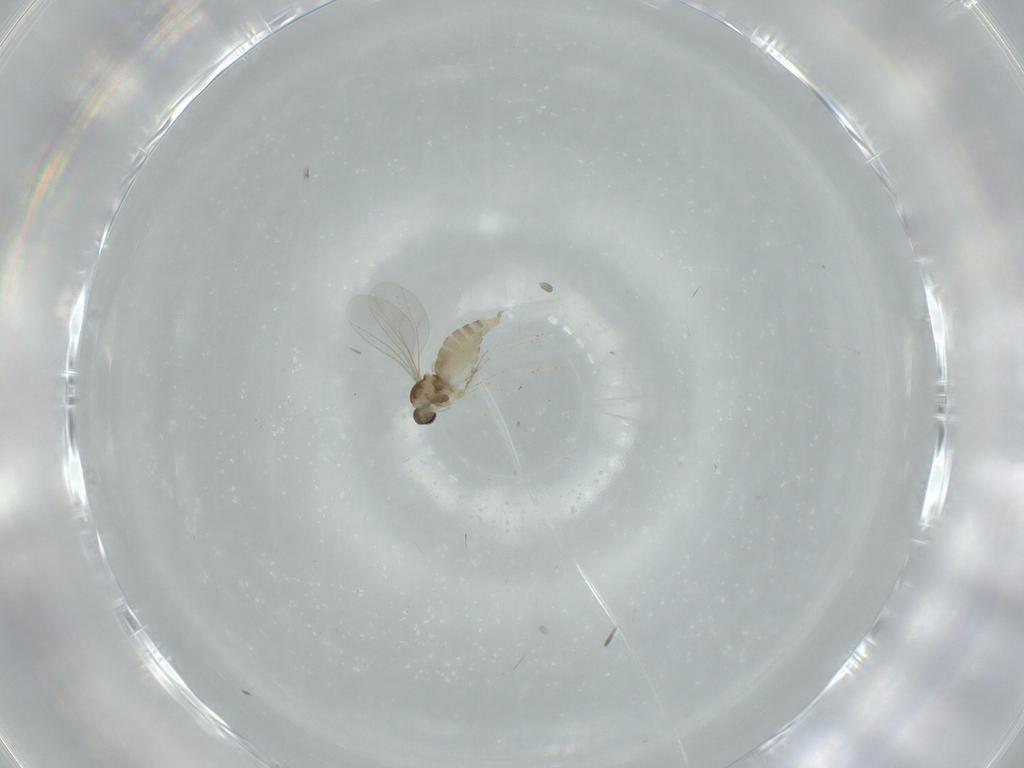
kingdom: Animalia
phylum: Arthropoda
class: Insecta
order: Diptera
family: Cecidomyiidae
